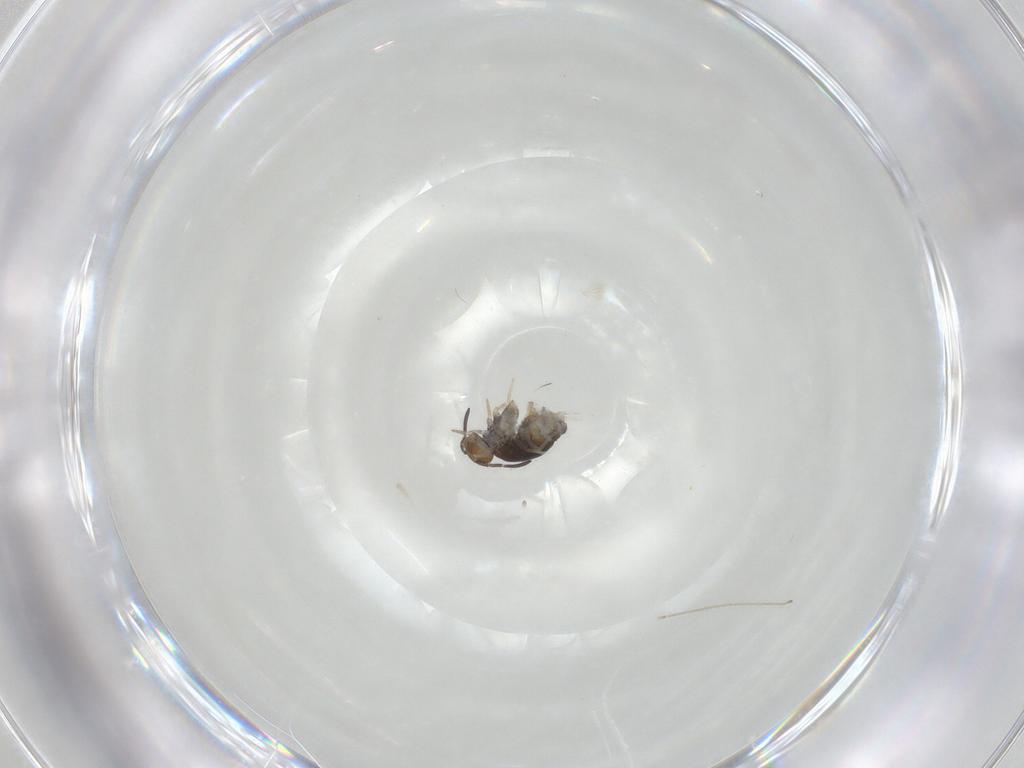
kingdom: Animalia
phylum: Arthropoda
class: Collembola
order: Symphypleona
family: Katiannidae
